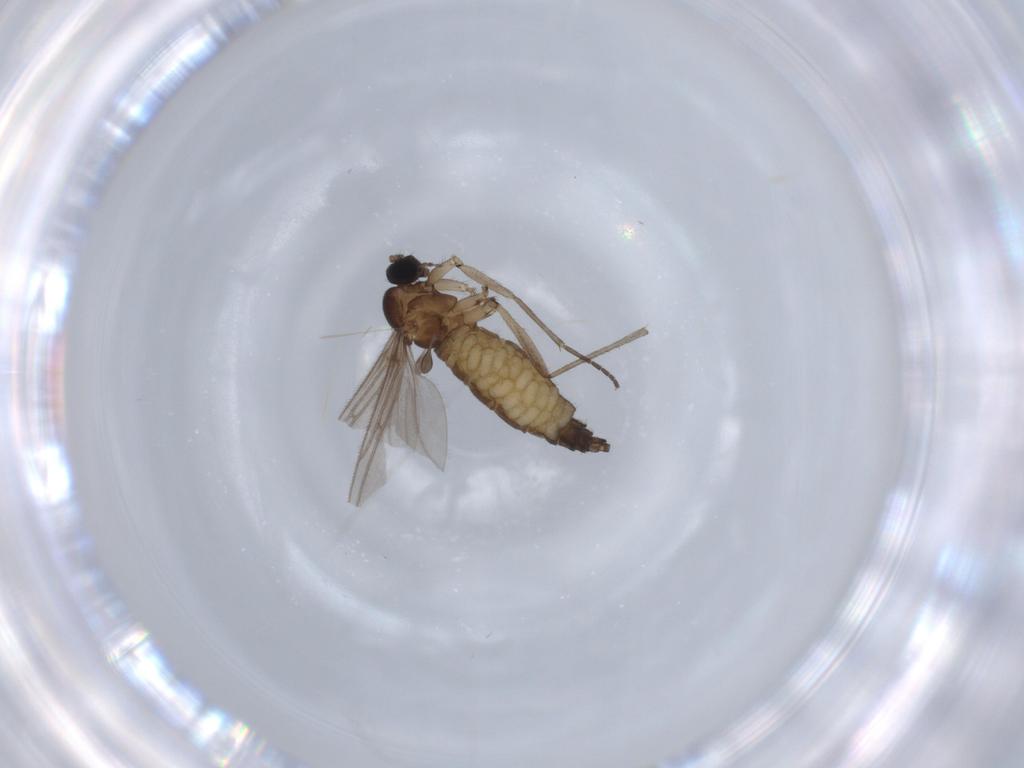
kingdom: Animalia
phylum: Arthropoda
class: Insecta
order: Diptera
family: Sciaridae
